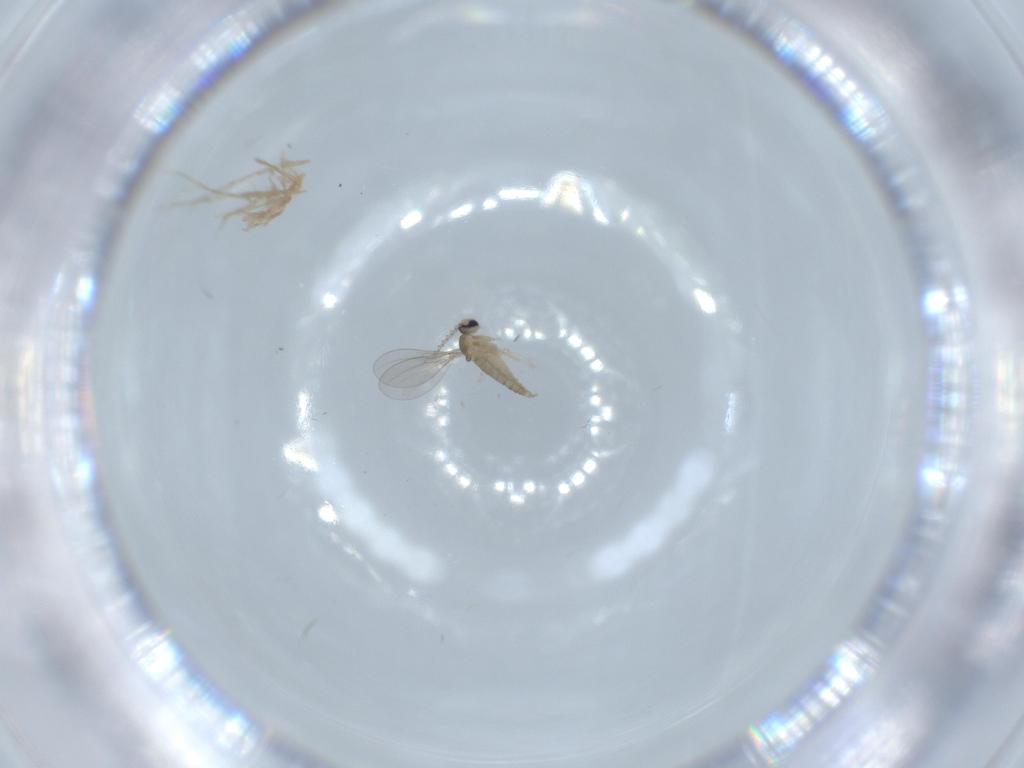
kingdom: Animalia
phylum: Arthropoda
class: Insecta
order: Diptera
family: Cecidomyiidae
